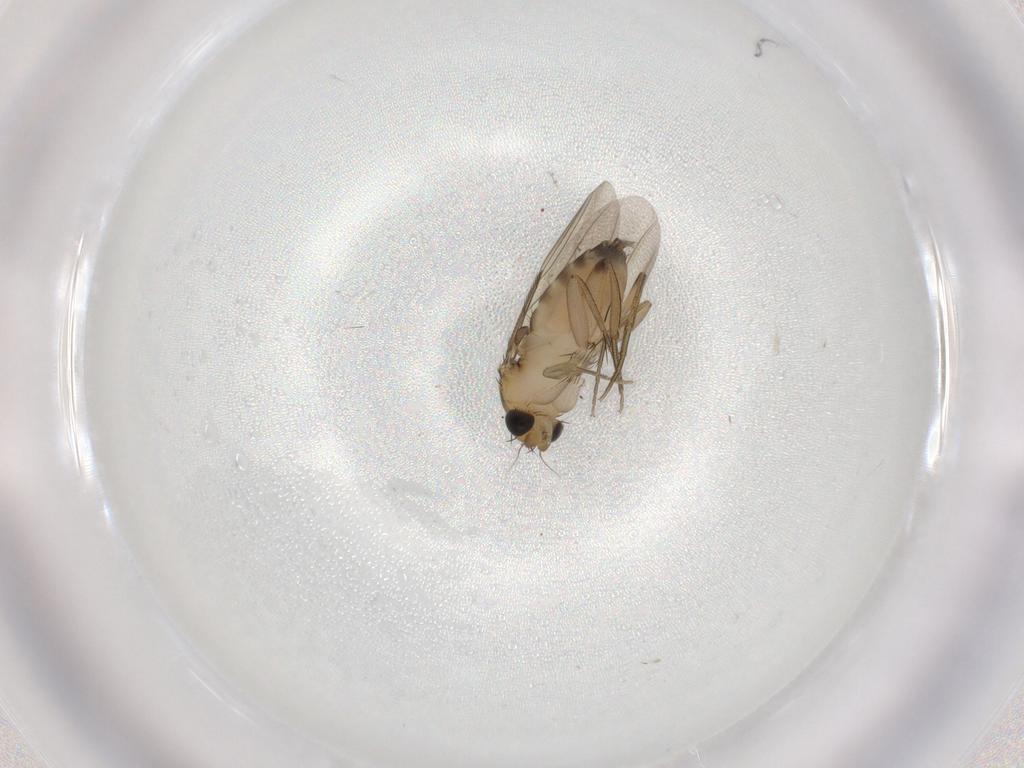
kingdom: Animalia
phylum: Arthropoda
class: Insecta
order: Diptera
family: Phoridae
